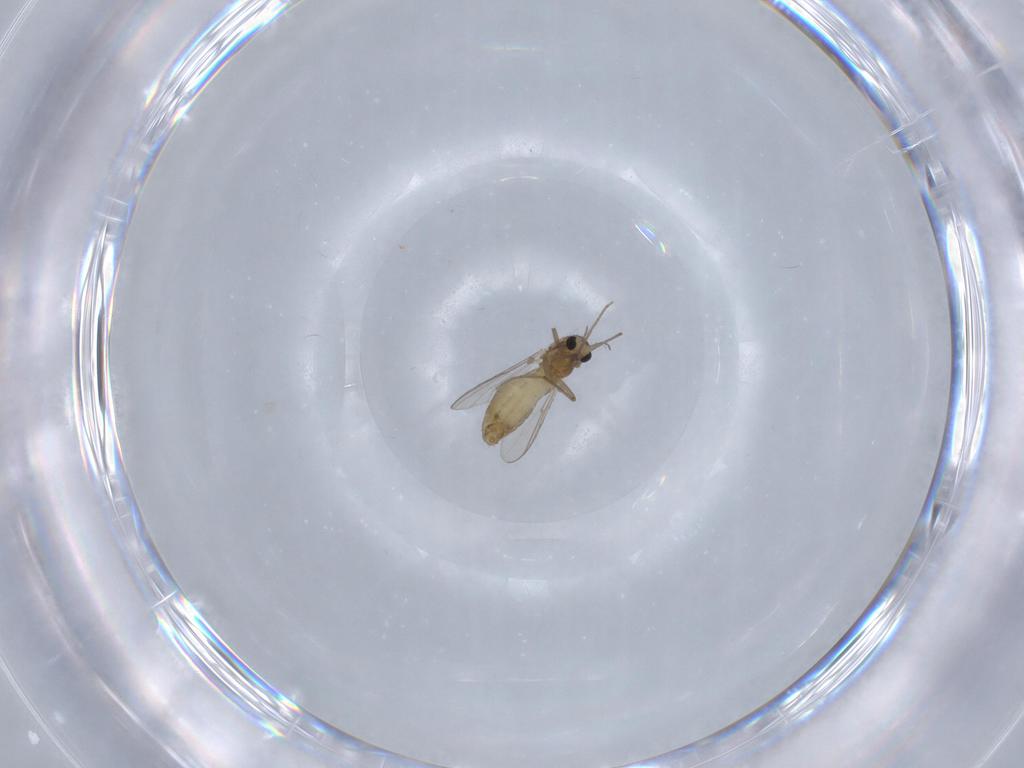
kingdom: Animalia
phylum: Arthropoda
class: Insecta
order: Diptera
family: Chironomidae
